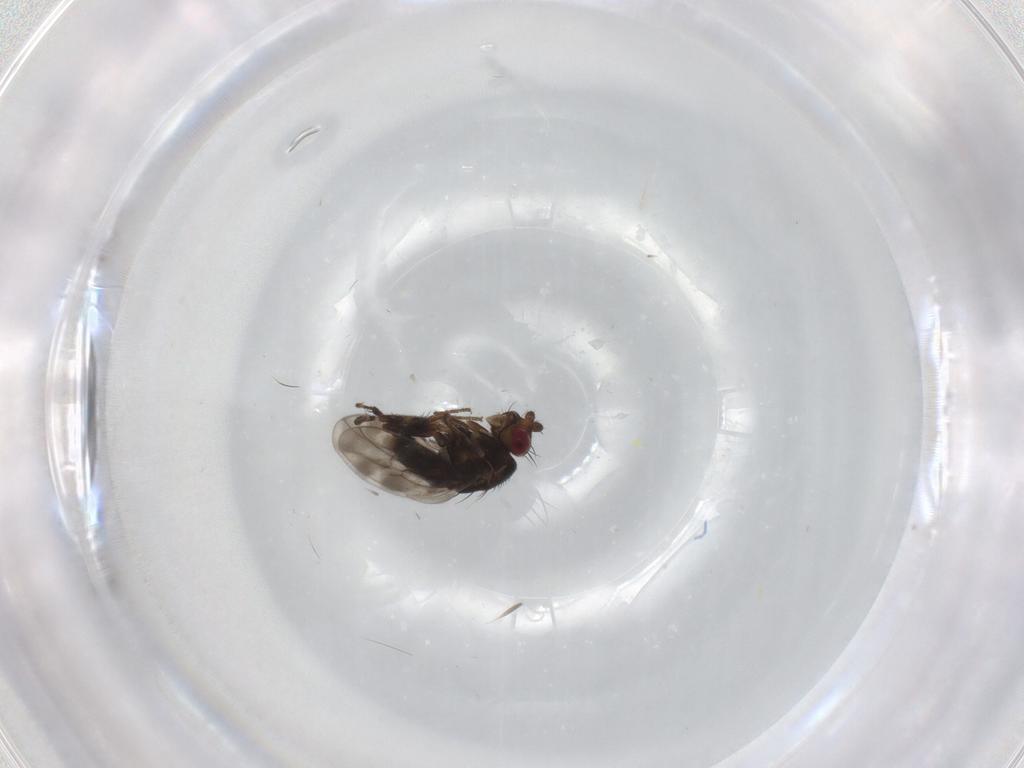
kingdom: Animalia
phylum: Arthropoda
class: Insecta
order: Diptera
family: Sphaeroceridae
